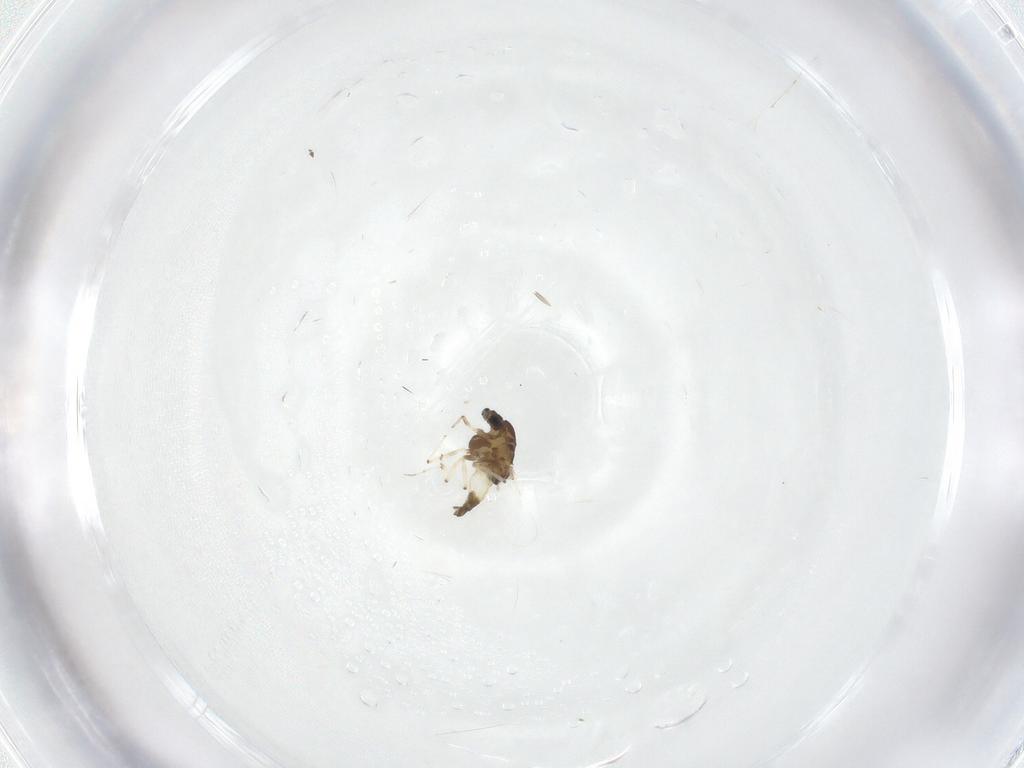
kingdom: Animalia
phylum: Arthropoda
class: Insecta
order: Diptera
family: Chironomidae
